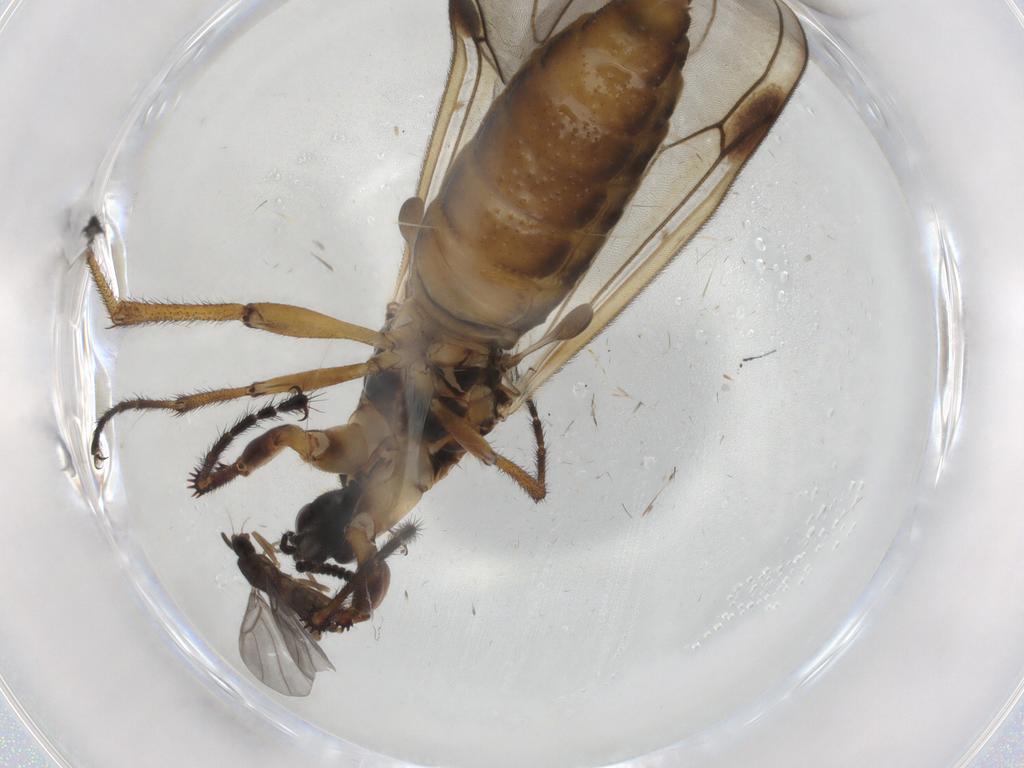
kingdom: Animalia
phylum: Arthropoda
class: Insecta
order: Diptera
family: Bibionidae
